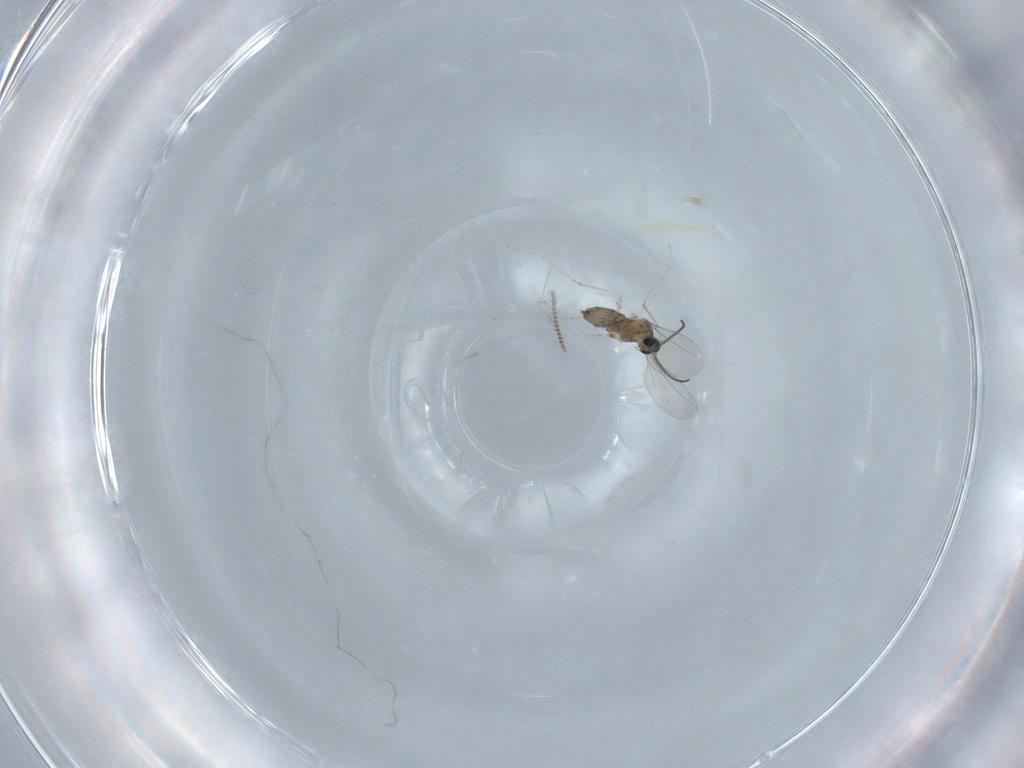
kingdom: Animalia
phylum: Arthropoda
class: Insecta
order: Diptera
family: Cecidomyiidae
